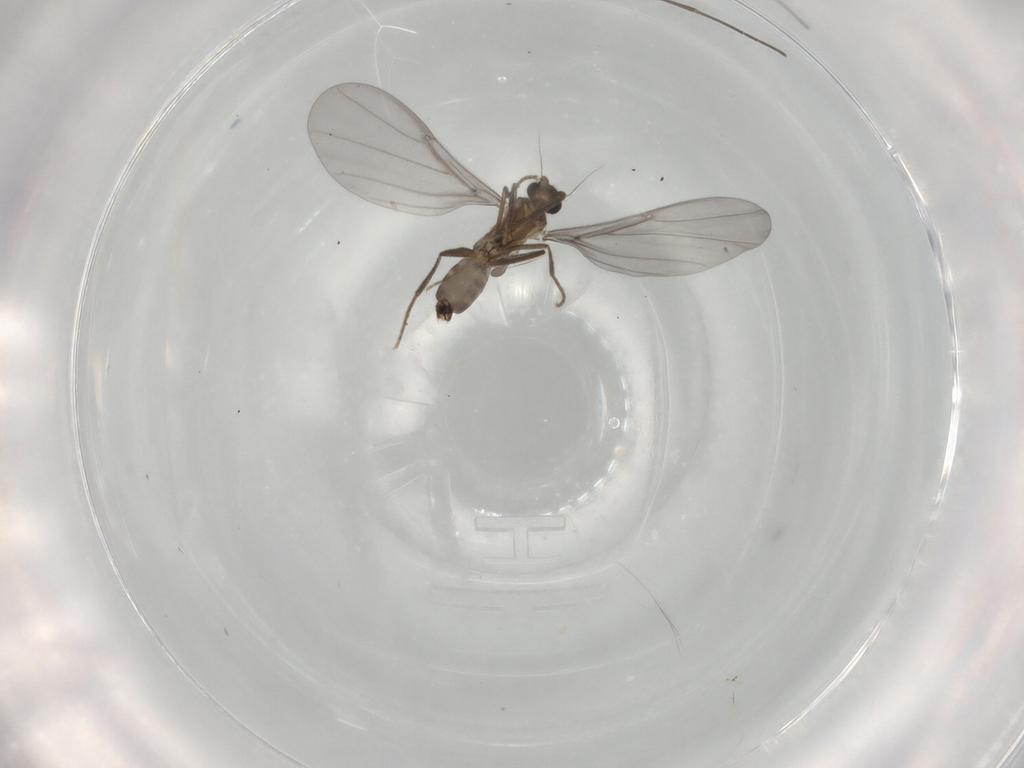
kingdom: Animalia
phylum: Arthropoda
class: Insecta
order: Diptera
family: Phoridae
